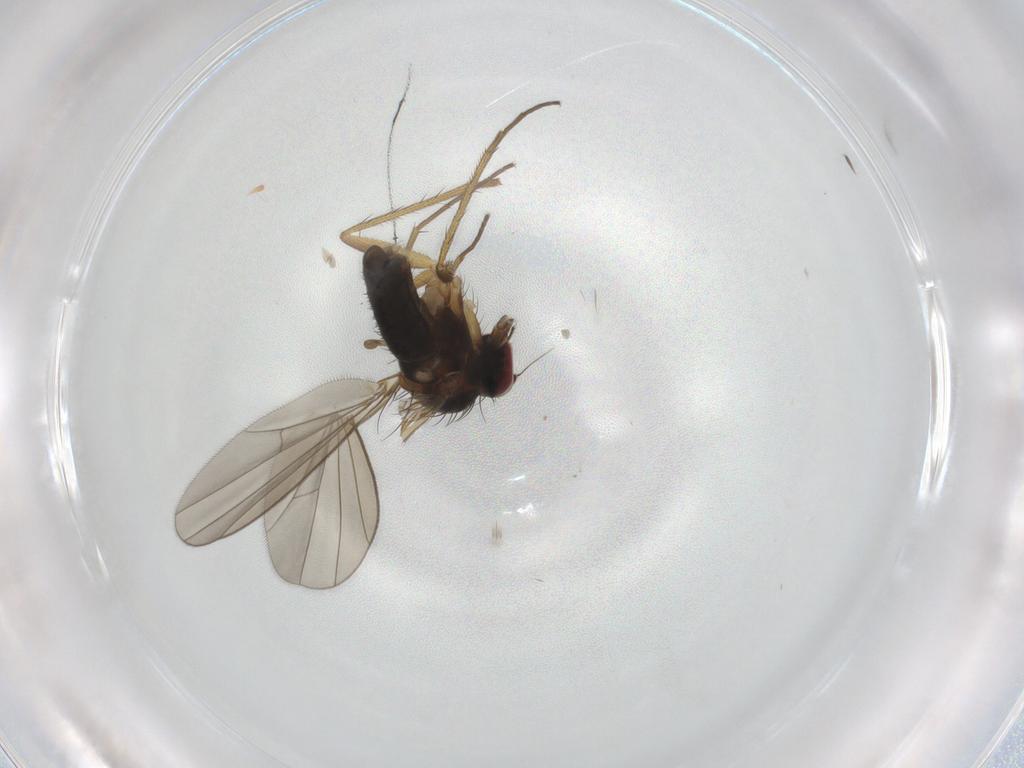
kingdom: Animalia
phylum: Arthropoda
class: Insecta
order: Diptera
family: Dolichopodidae
